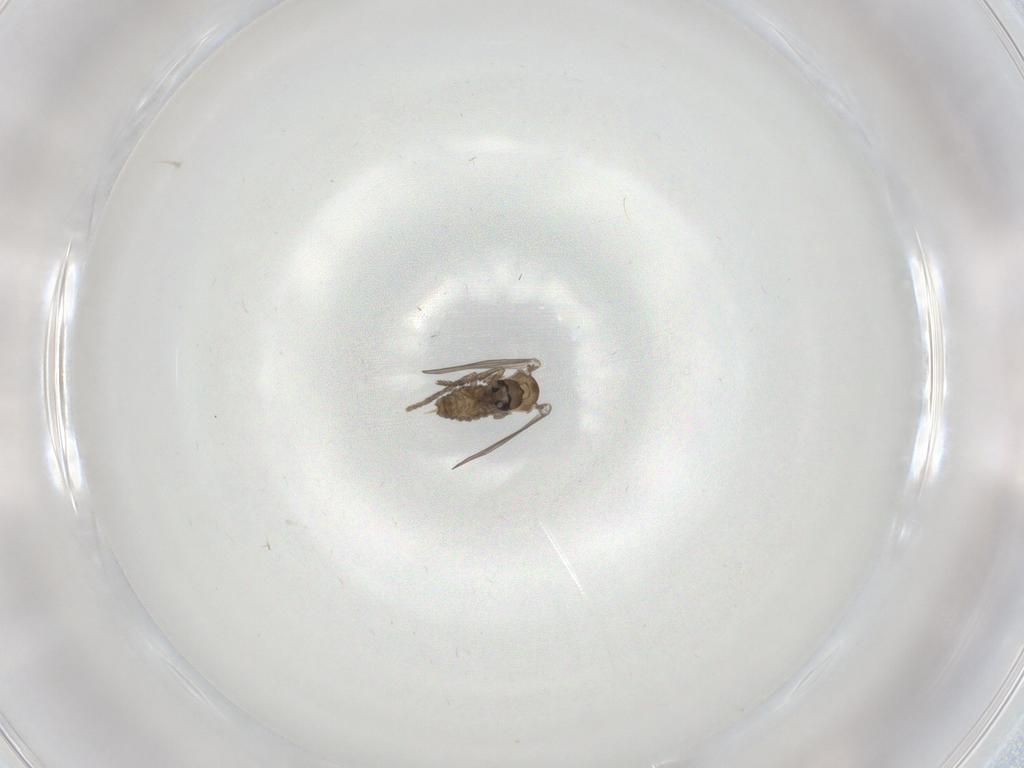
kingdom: Animalia
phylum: Arthropoda
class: Insecta
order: Diptera
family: Psychodidae
